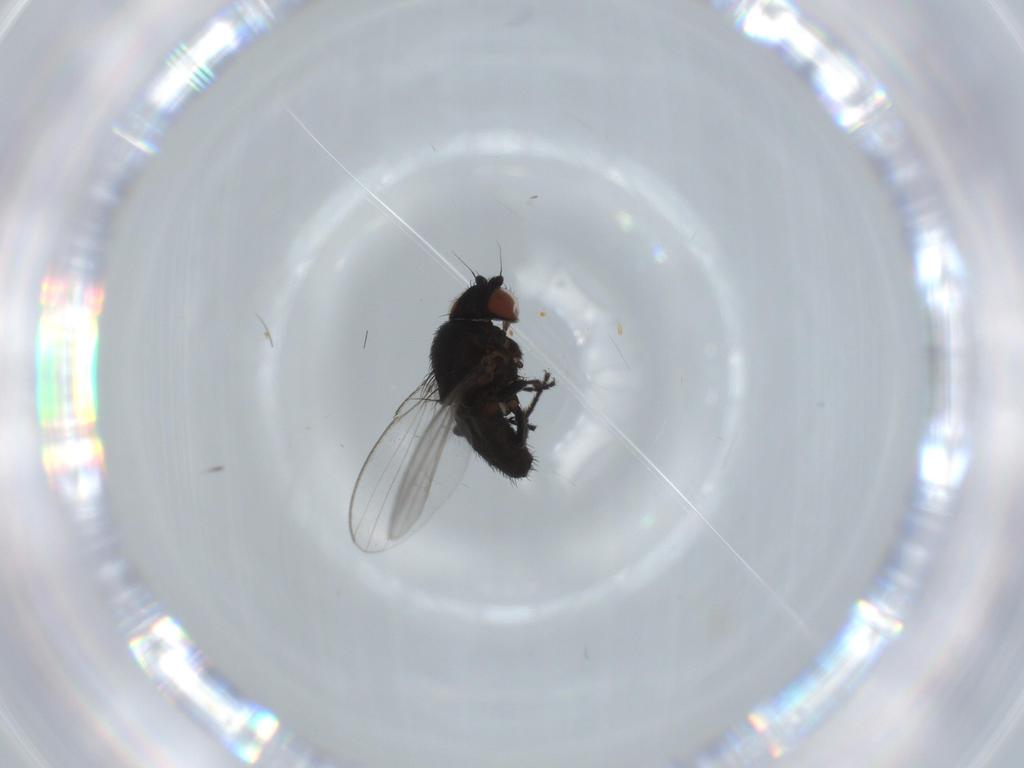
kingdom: Animalia
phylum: Arthropoda
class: Insecta
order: Diptera
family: Milichiidae
